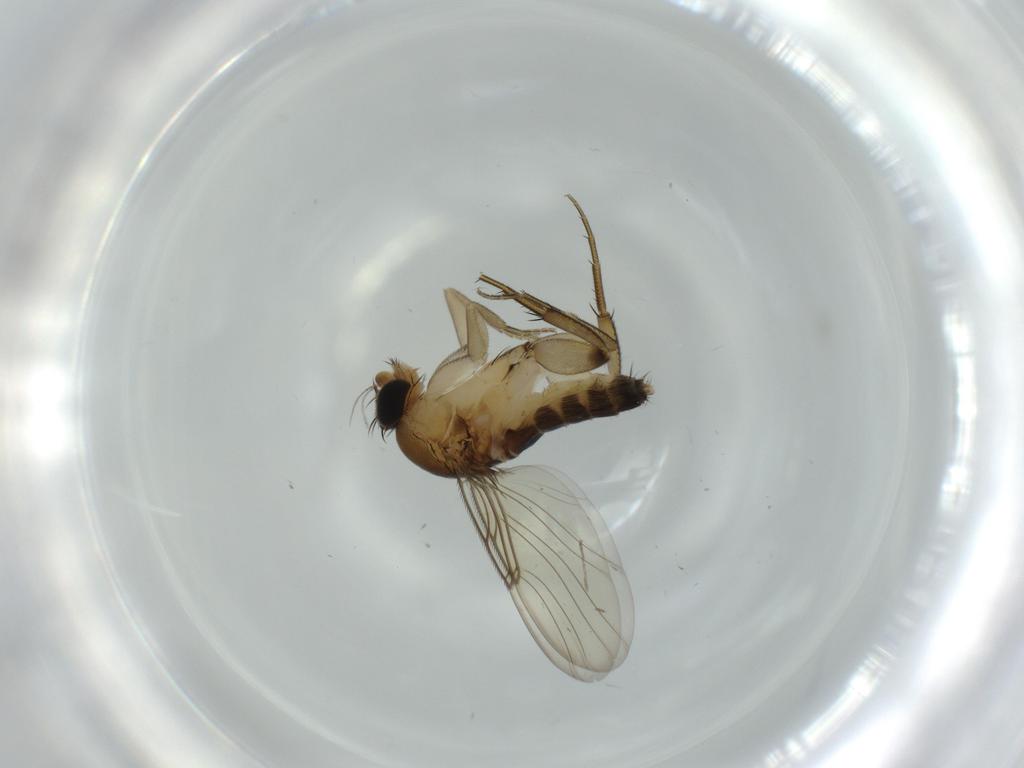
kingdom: Animalia
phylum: Arthropoda
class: Insecta
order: Diptera
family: Phoridae
